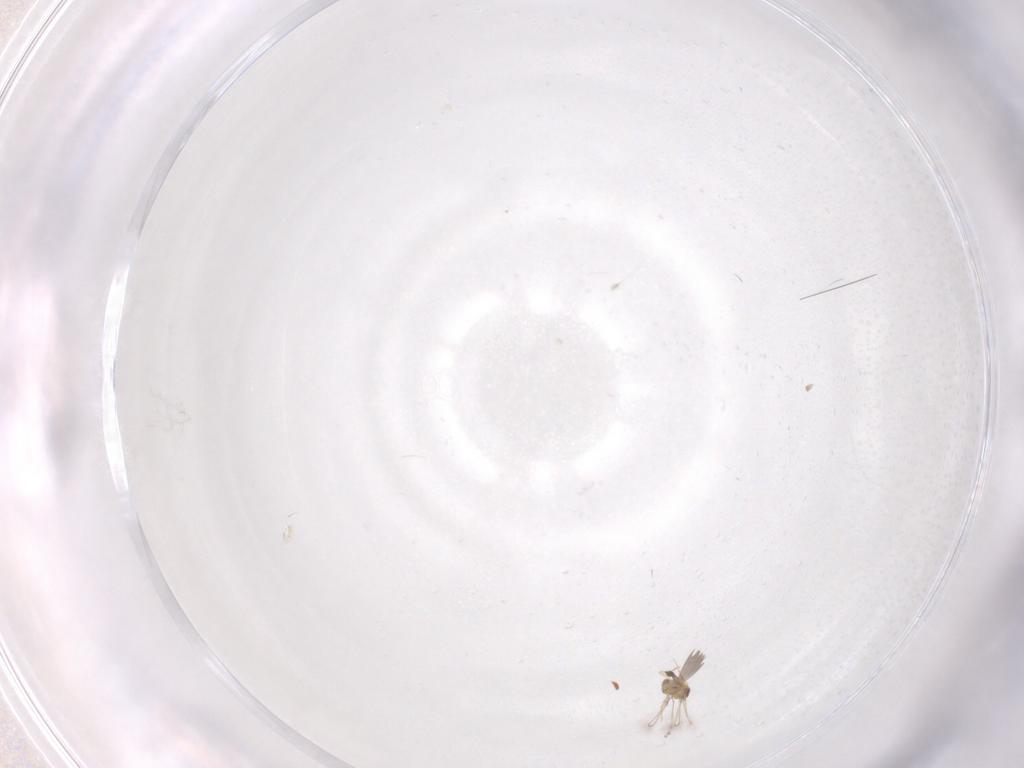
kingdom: Animalia
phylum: Arthropoda
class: Insecta
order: Diptera
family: Cecidomyiidae
